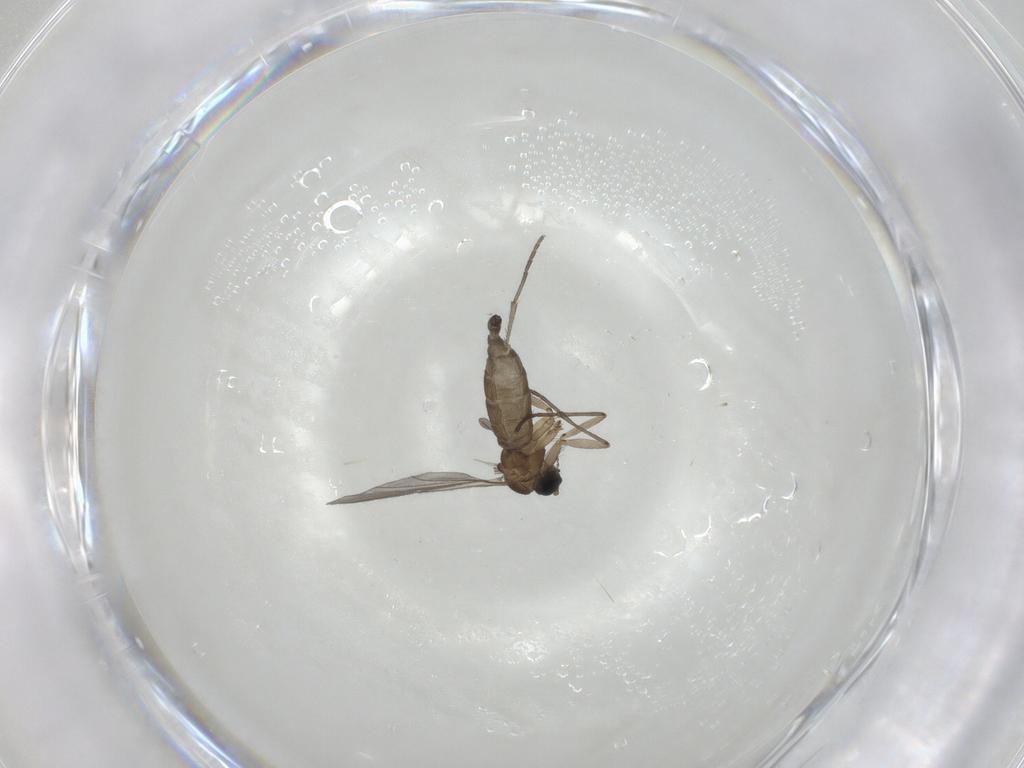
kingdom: Animalia
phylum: Arthropoda
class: Insecta
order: Diptera
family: Sciaridae
